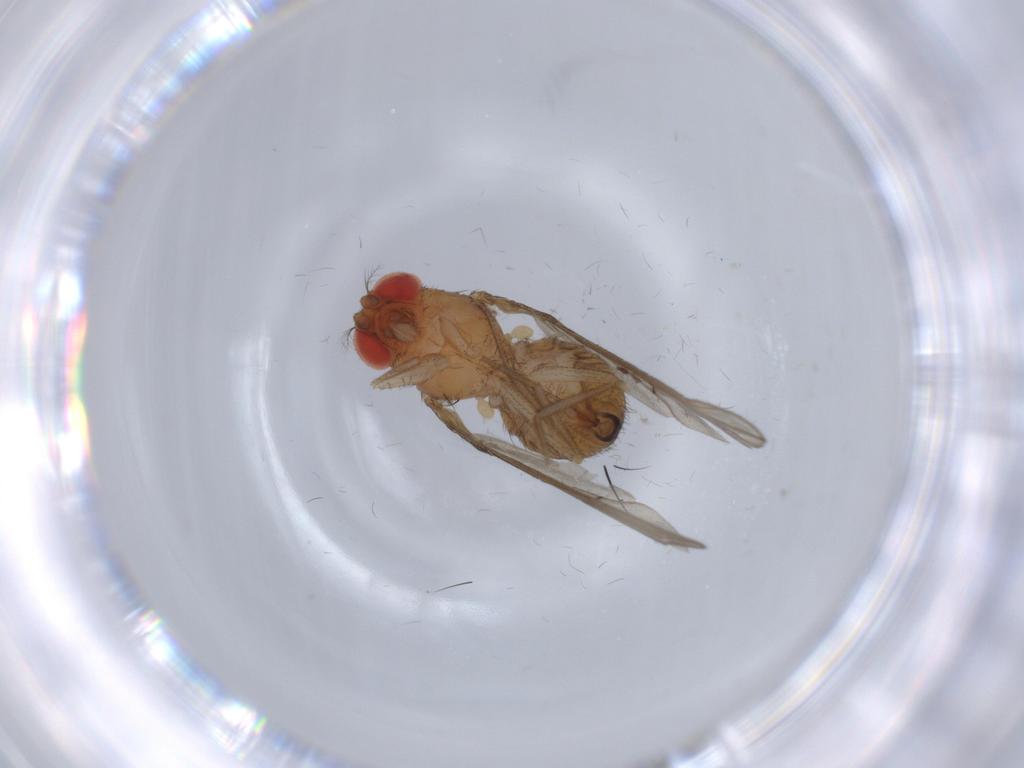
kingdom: Animalia
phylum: Arthropoda
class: Insecta
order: Diptera
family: Drosophilidae
